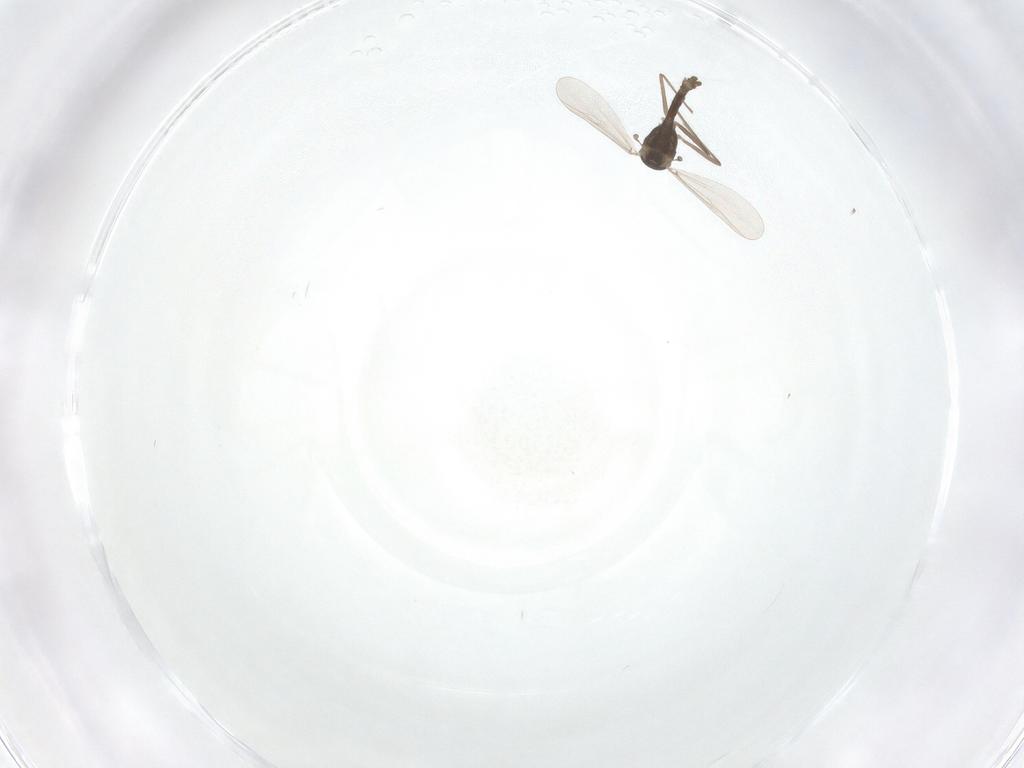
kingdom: Animalia
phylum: Arthropoda
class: Insecta
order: Diptera
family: Chironomidae
